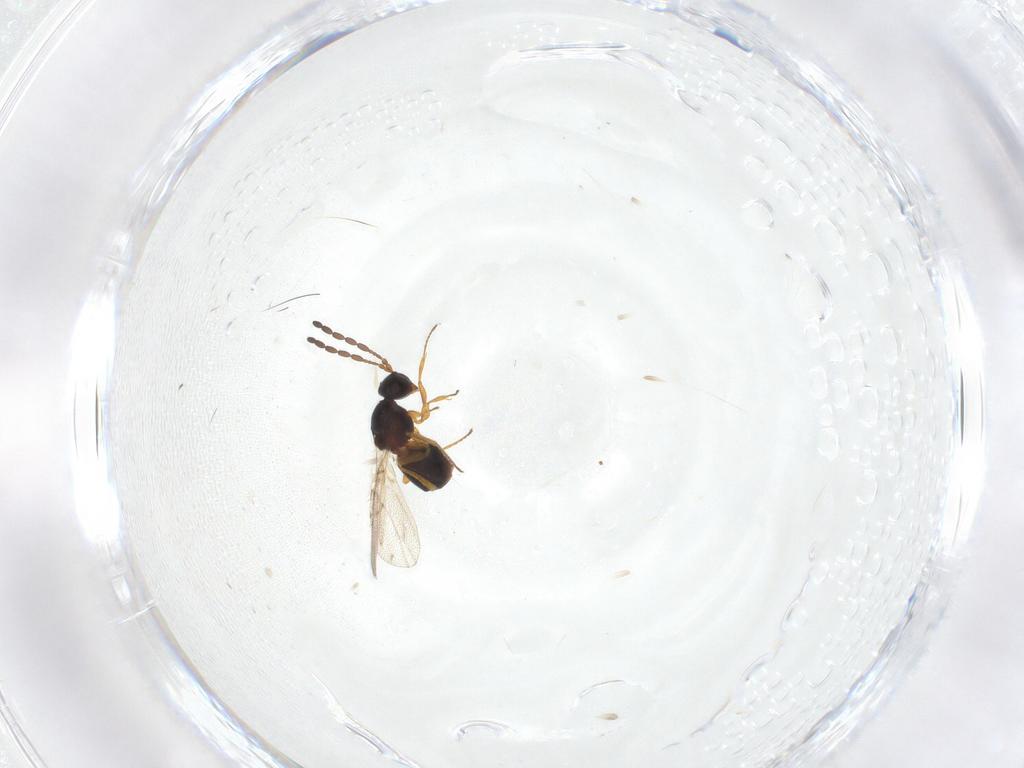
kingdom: Animalia
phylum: Arthropoda
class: Insecta
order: Hymenoptera
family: Figitidae
